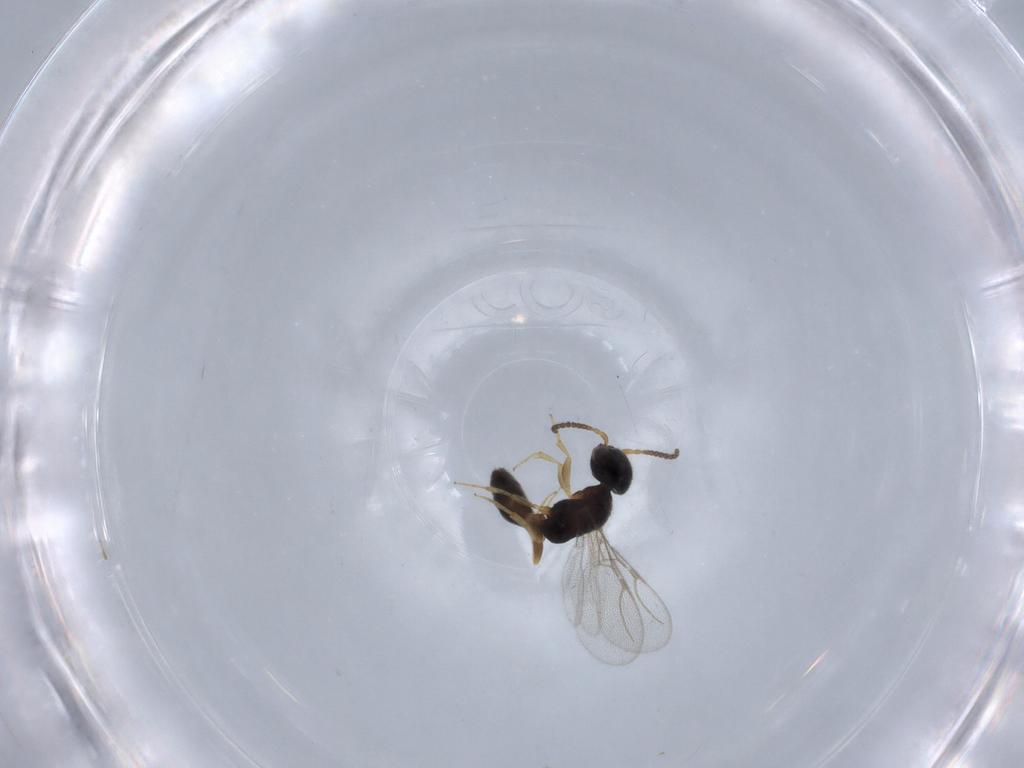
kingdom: Animalia
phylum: Arthropoda
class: Insecta
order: Hymenoptera
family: Bethylidae
